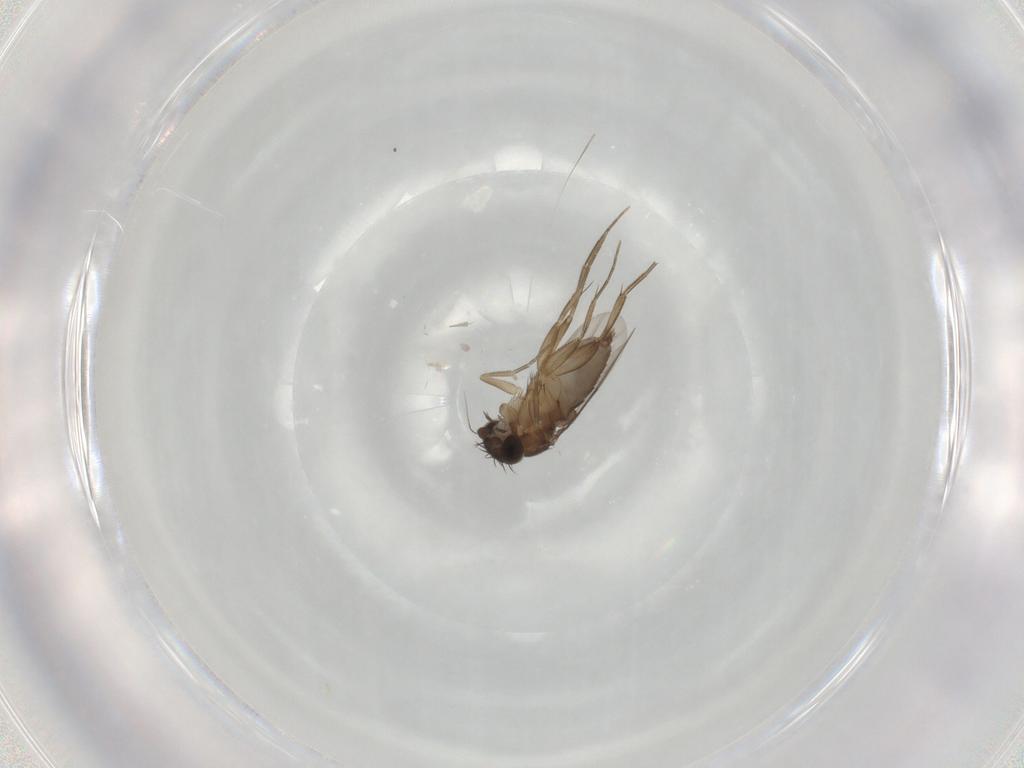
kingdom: Animalia
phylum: Arthropoda
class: Insecta
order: Diptera
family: Phoridae
